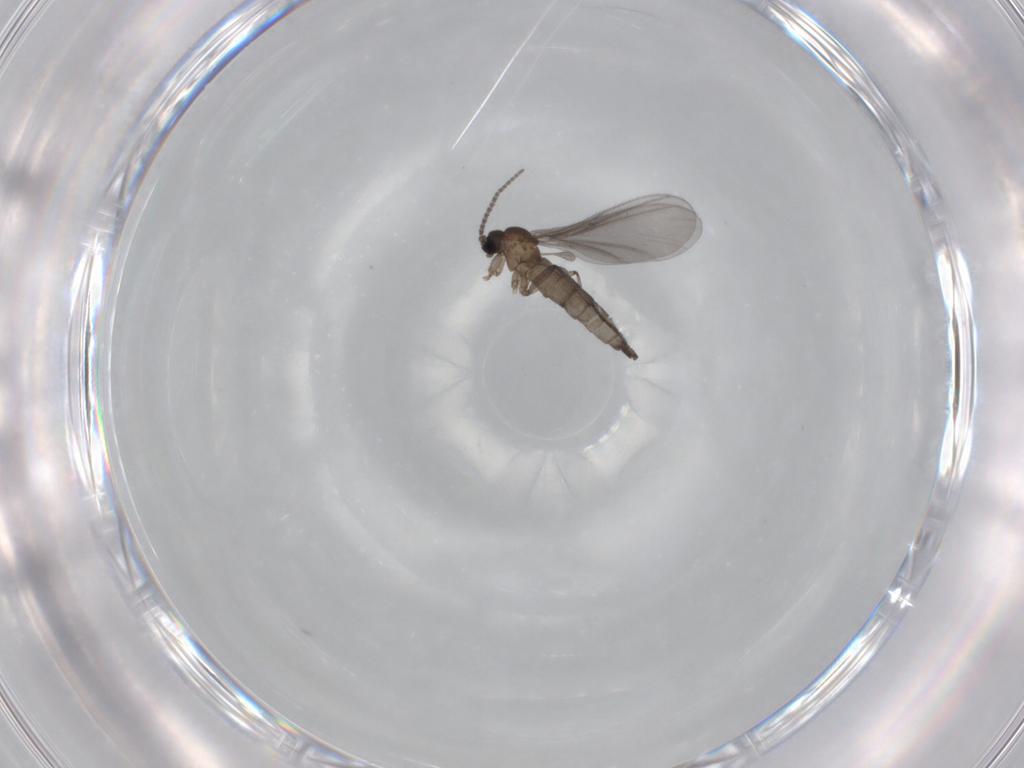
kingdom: Animalia
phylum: Arthropoda
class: Insecta
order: Diptera
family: Sciaridae
